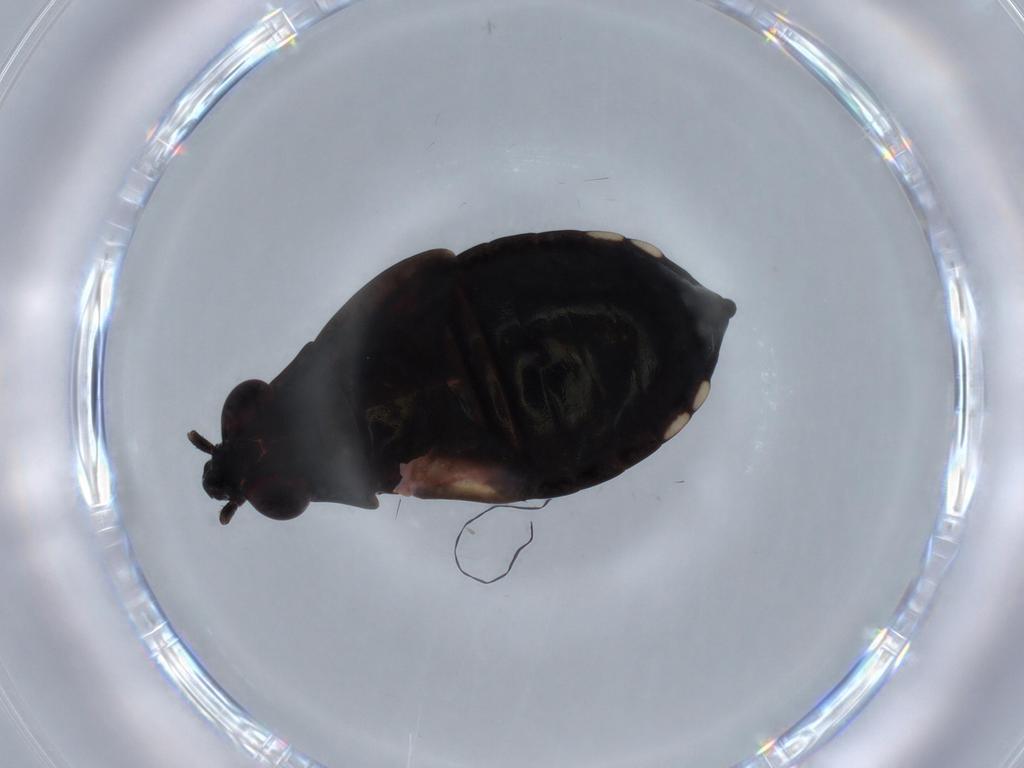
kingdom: Animalia
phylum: Arthropoda
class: Insecta
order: Hemiptera
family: Saldidae
